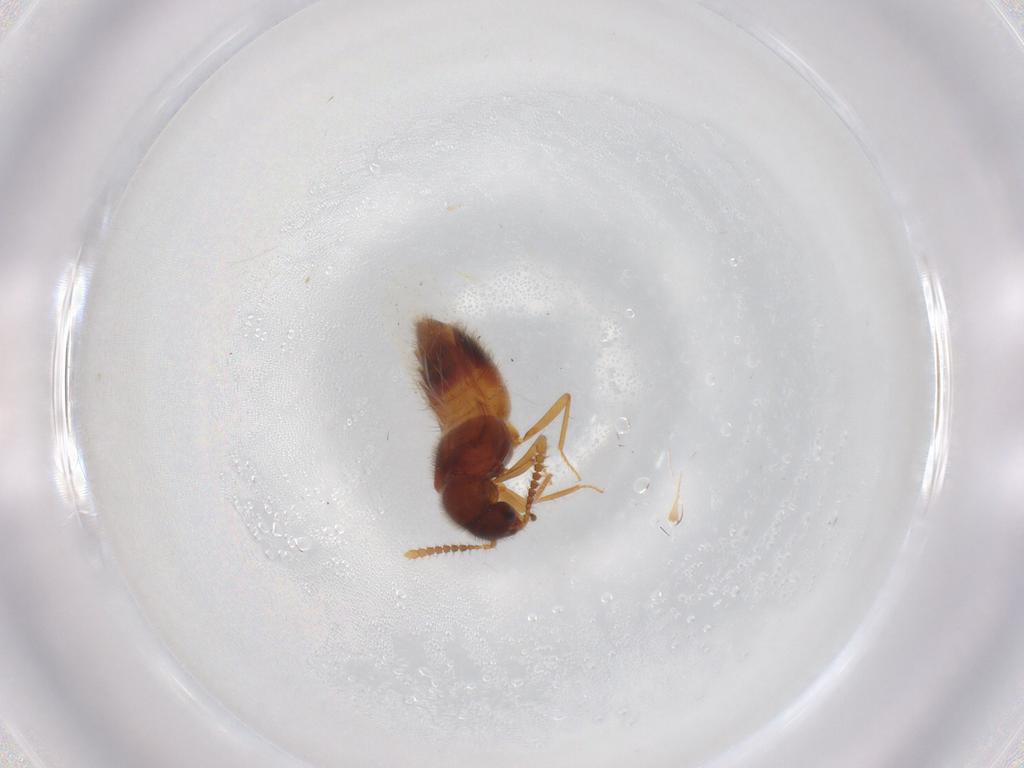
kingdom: Animalia
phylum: Arthropoda
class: Insecta
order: Coleoptera
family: Staphylinidae
